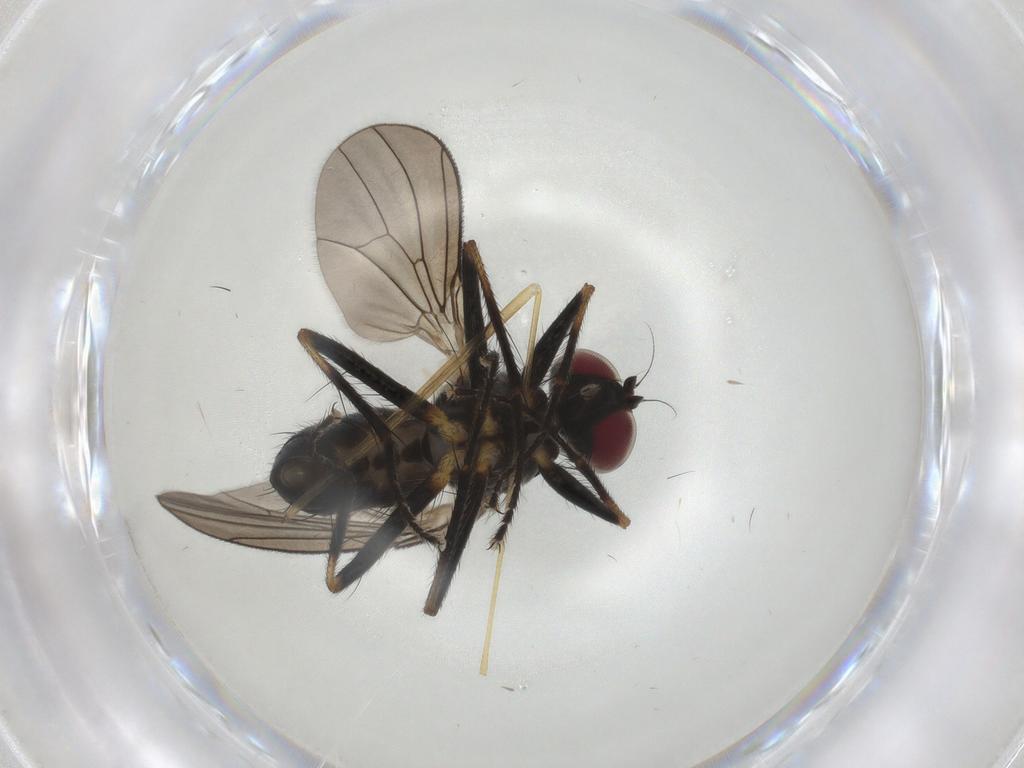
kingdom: Animalia
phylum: Arthropoda
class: Insecta
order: Diptera
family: Anthomyiidae
